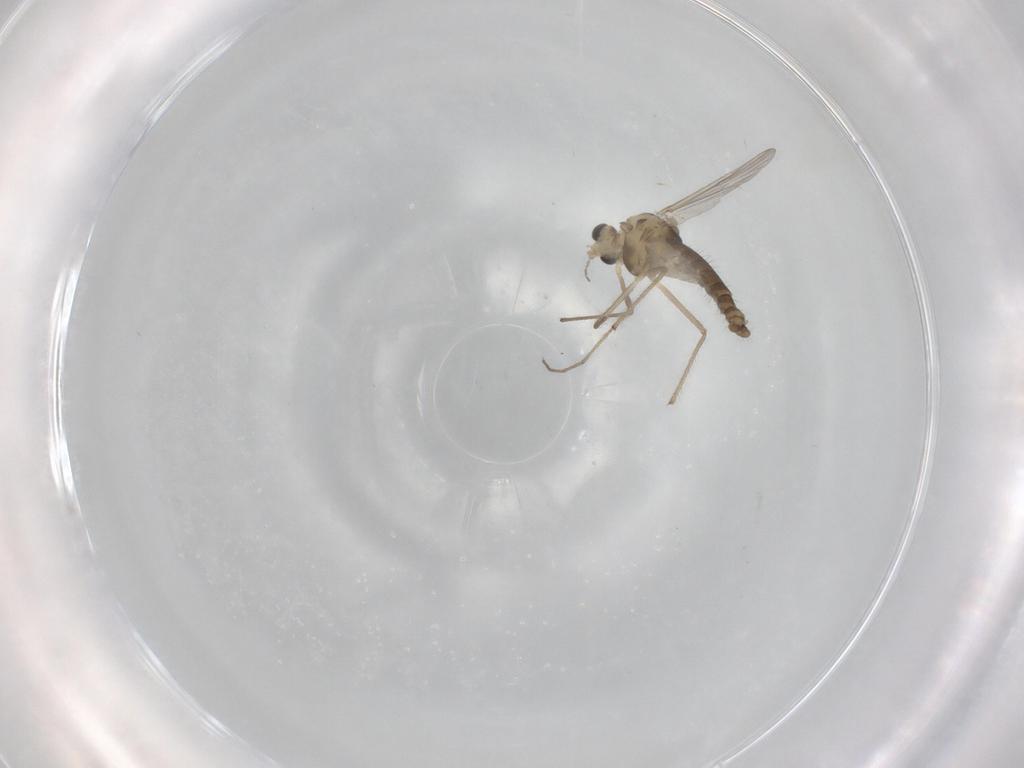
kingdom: Animalia
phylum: Arthropoda
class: Insecta
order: Diptera
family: Chironomidae
